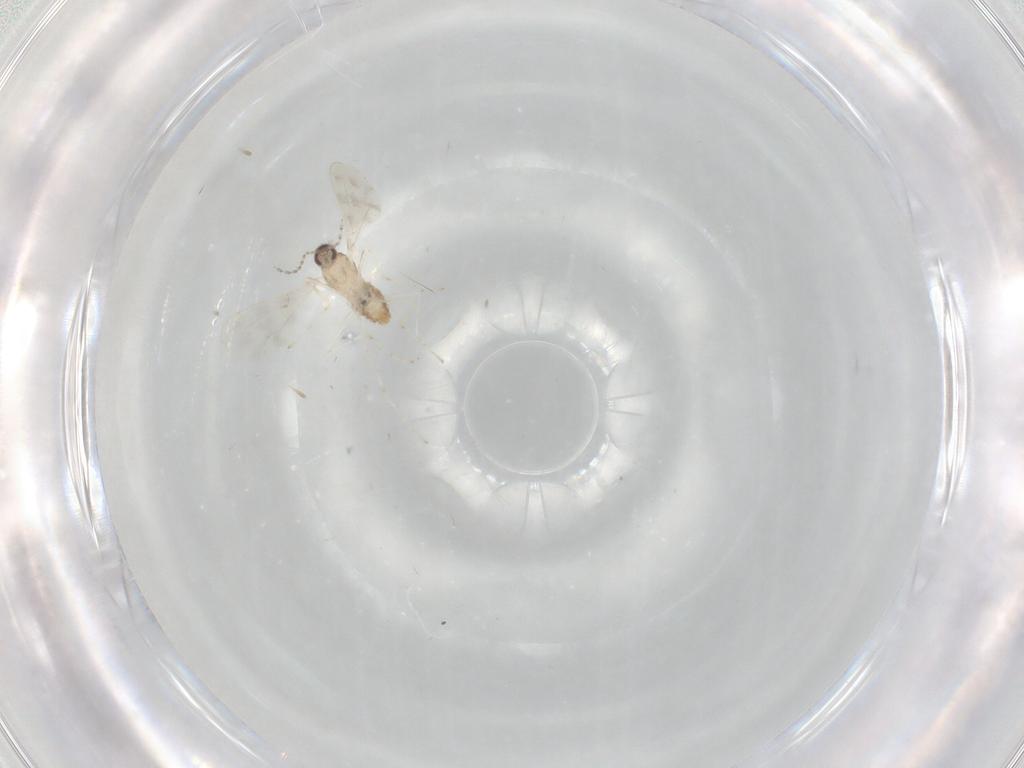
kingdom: Animalia
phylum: Arthropoda
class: Insecta
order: Diptera
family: Cecidomyiidae
